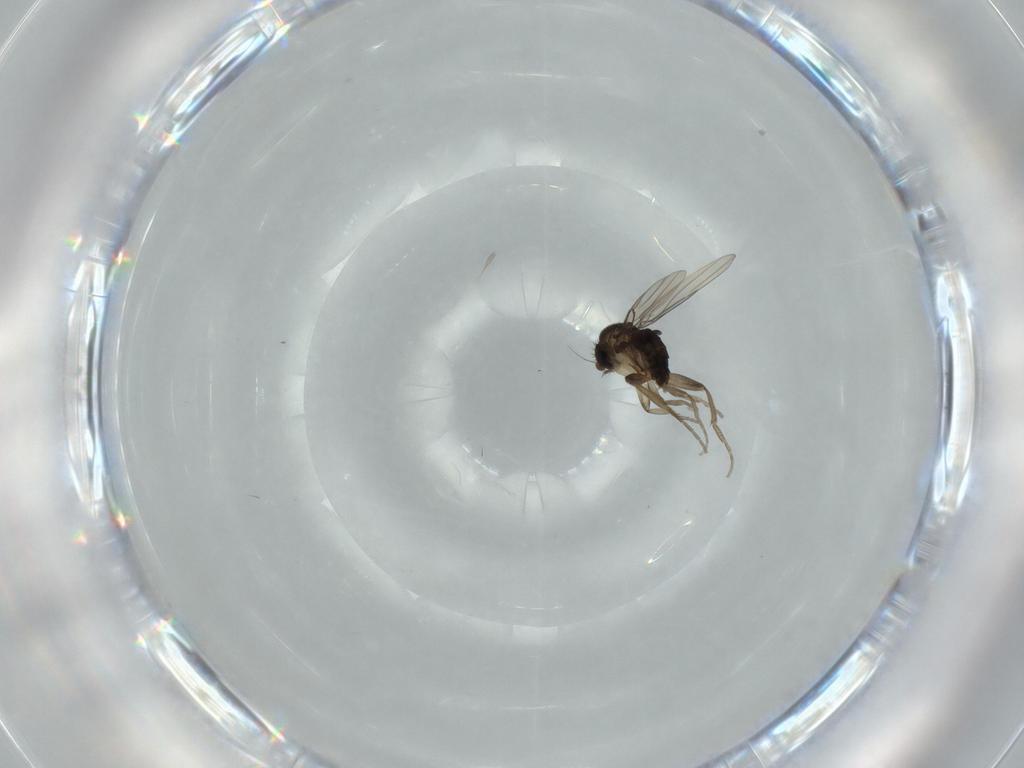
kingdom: Animalia
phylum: Arthropoda
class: Insecta
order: Diptera
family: Phoridae
